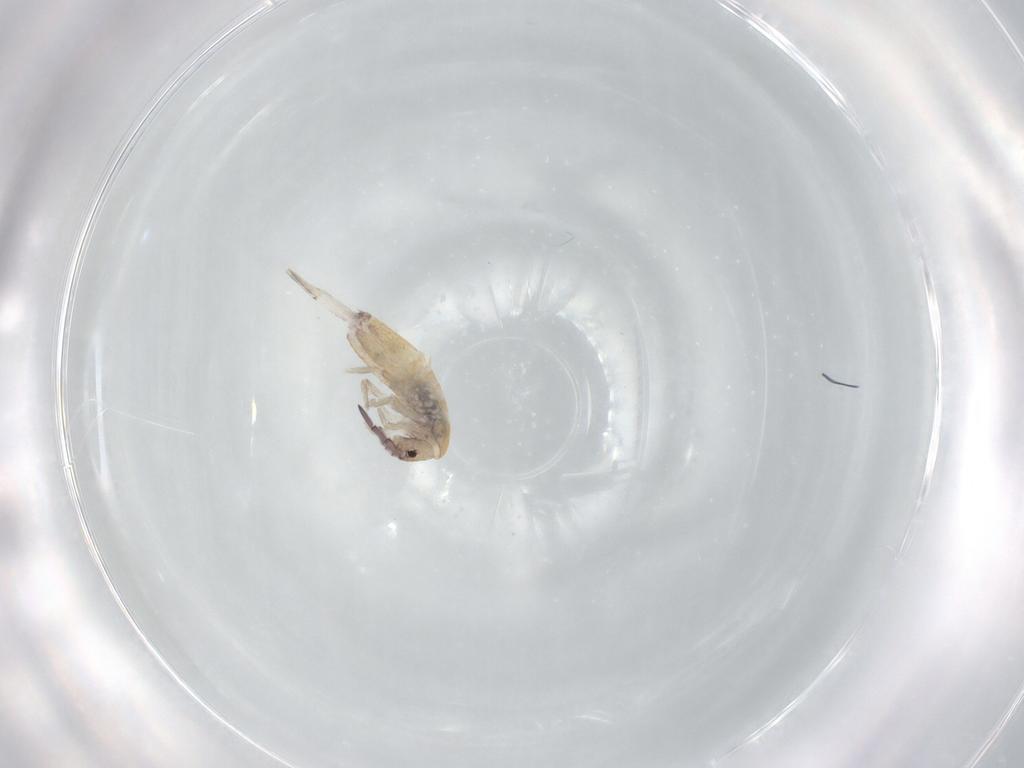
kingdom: Animalia
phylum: Arthropoda
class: Collembola
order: Entomobryomorpha
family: Entomobryidae
